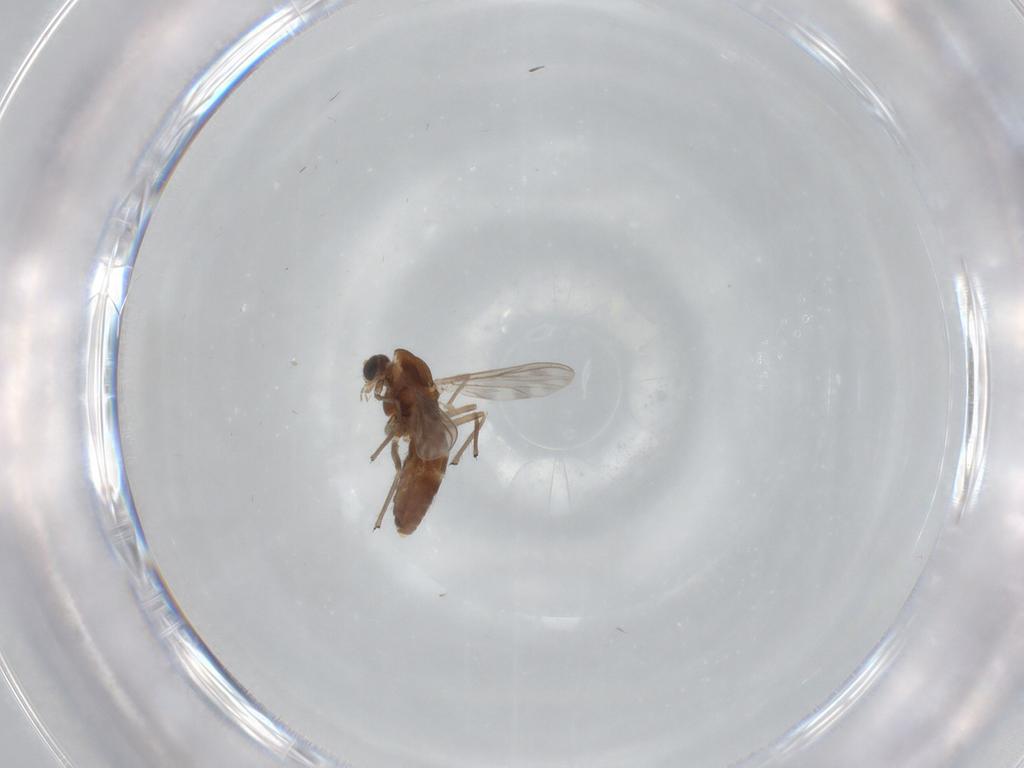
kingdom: Animalia
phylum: Arthropoda
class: Insecta
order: Diptera
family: Chironomidae
